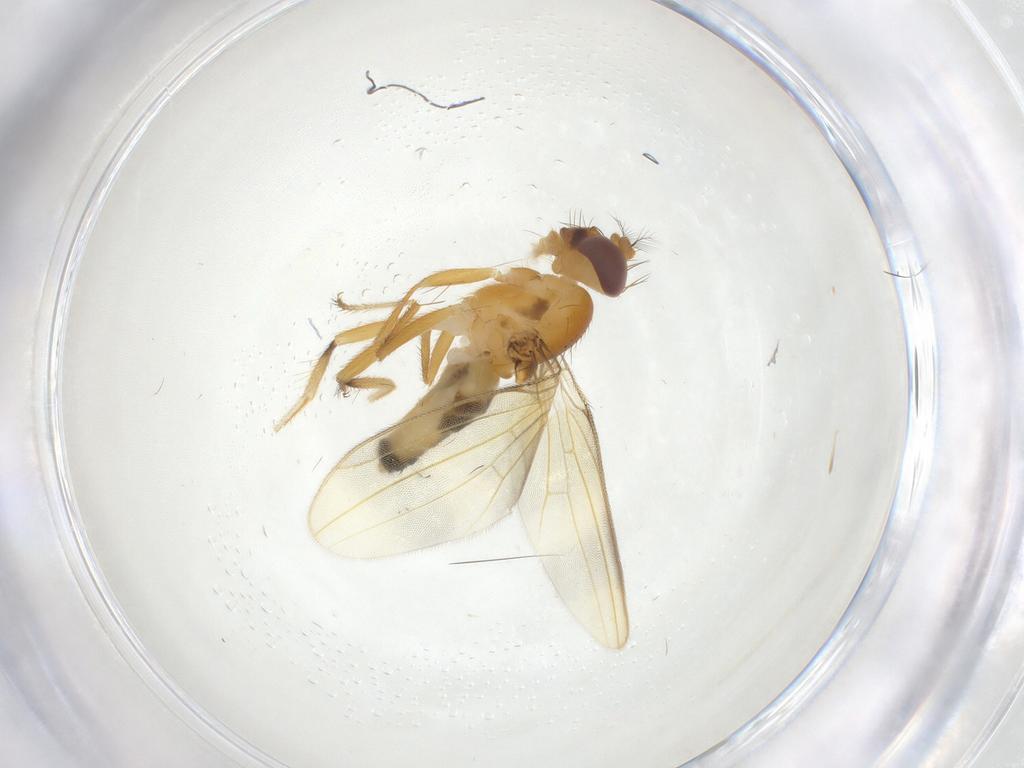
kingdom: Animalia
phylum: Arthropoda
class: Insecta
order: Diptera
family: Periscelididae
